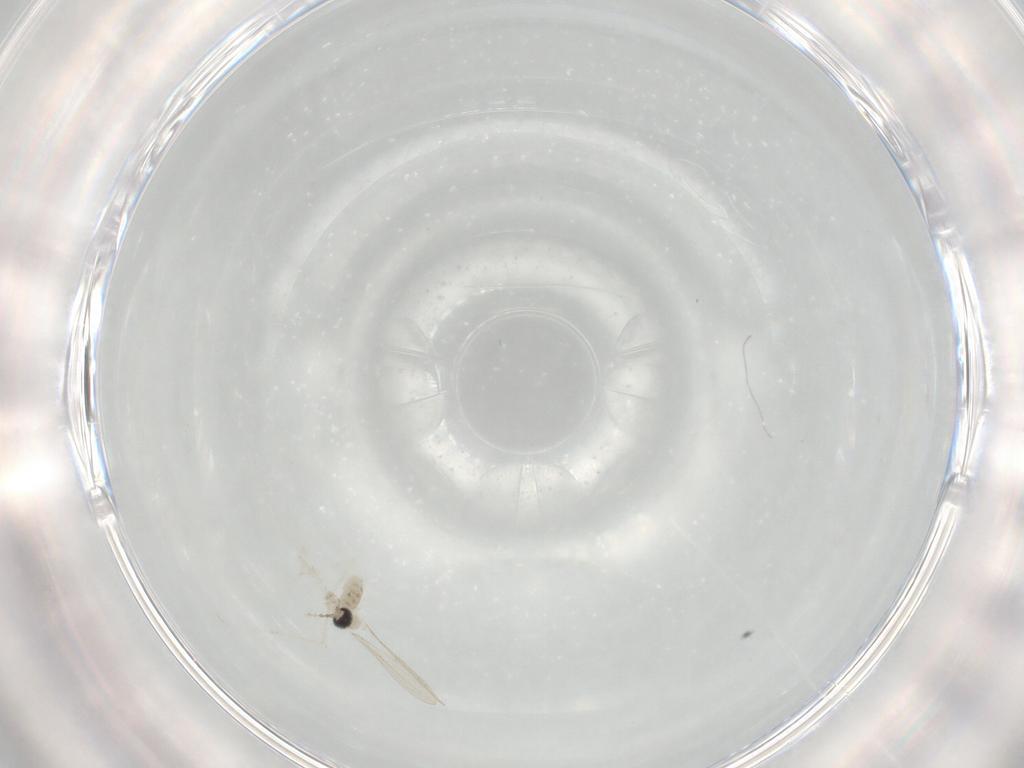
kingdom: Animalia
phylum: Arthropoda
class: Insecta
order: Diptera
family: Cecidomyiidae
